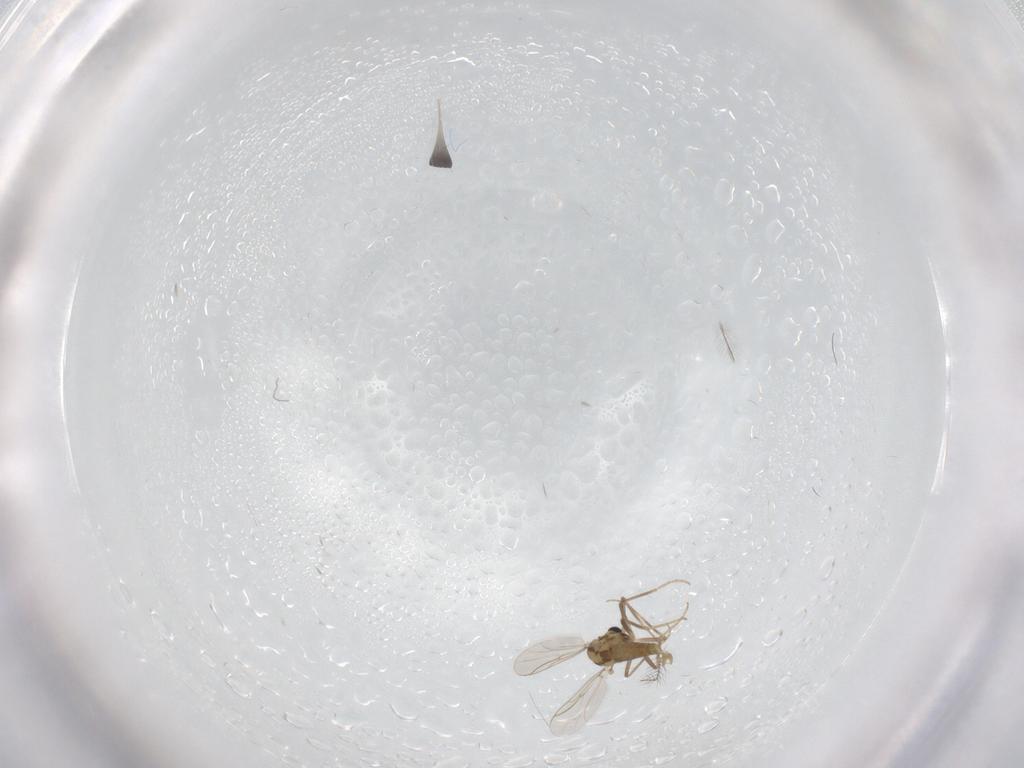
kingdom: Animalia
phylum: Arthropoda
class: Insecta
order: Diptera
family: Chironomidae
